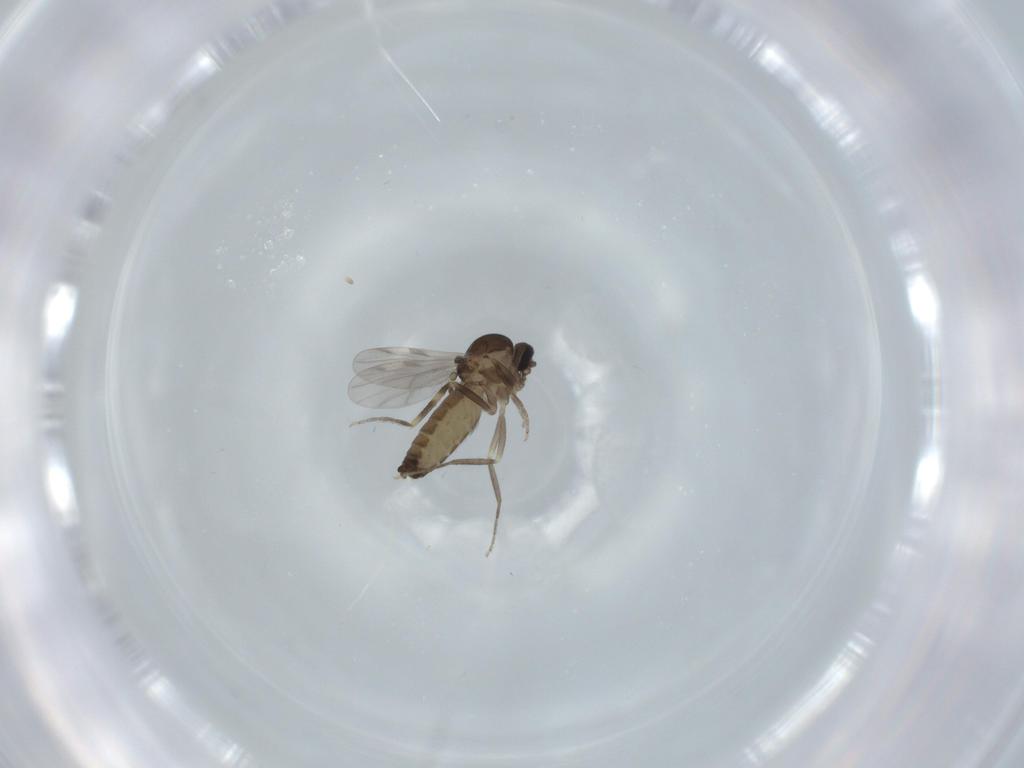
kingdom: Animalia
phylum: Arthropoda
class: Insecta
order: Diptera
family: Ceratopogonidae
